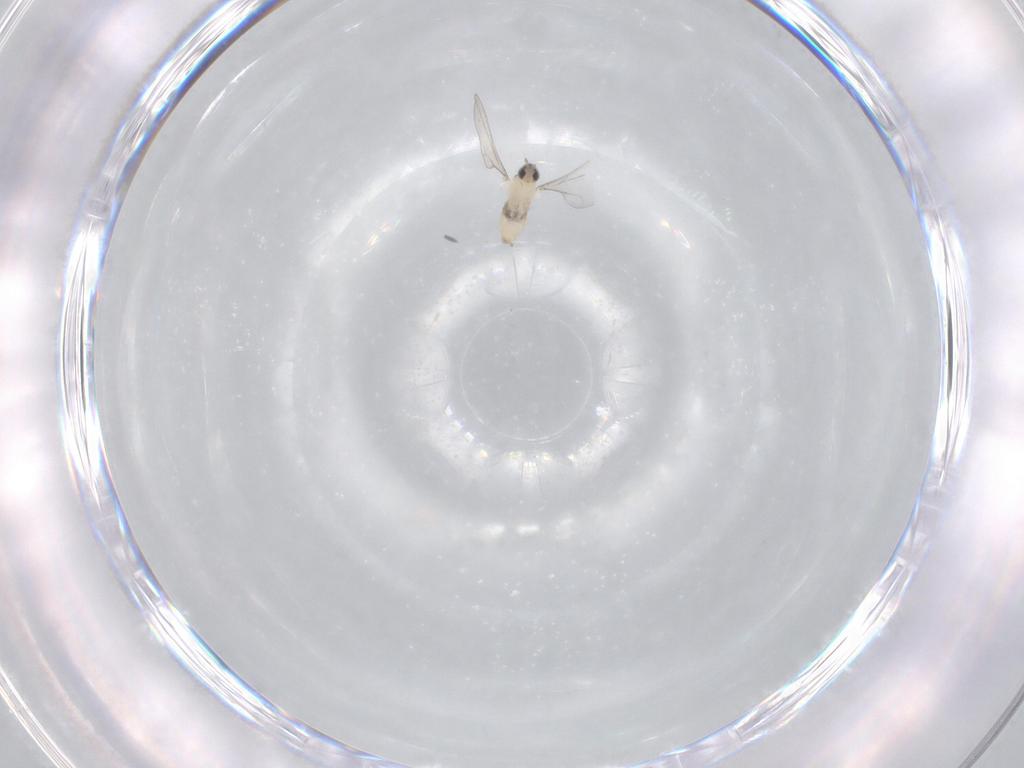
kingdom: Animalia
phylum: Arthropoda
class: Insecta
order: Diptera
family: Cecidomyiidae
